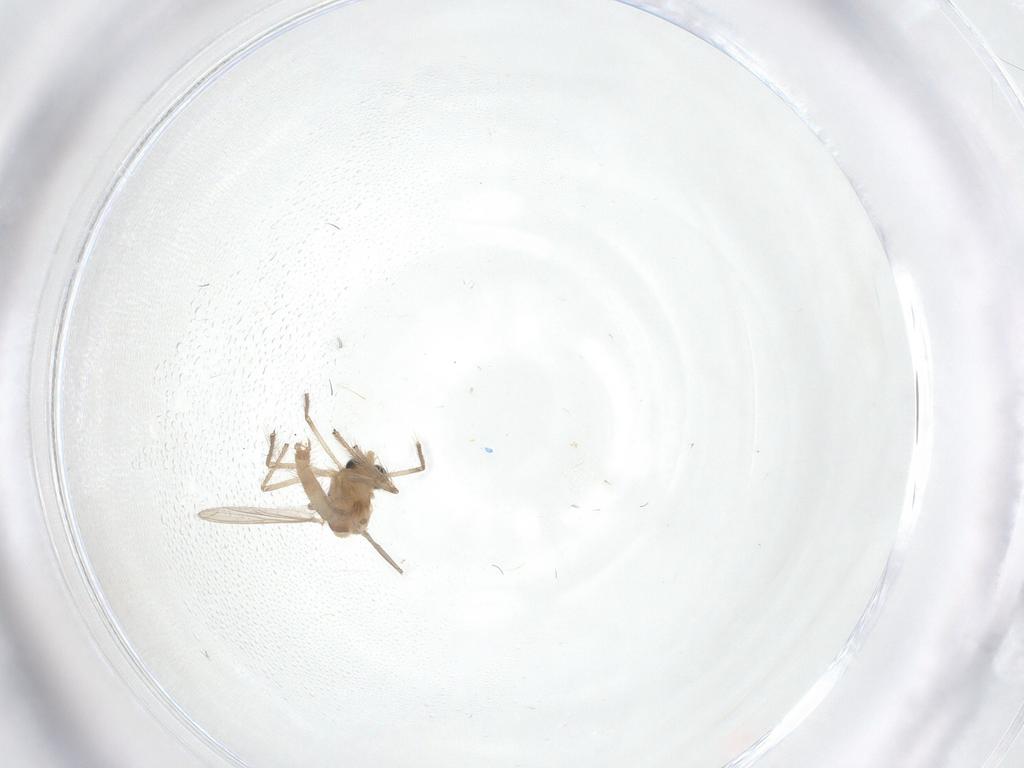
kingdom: Animalia
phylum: Arthropoda
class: Insecta
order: Diptera
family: Chironomidae
